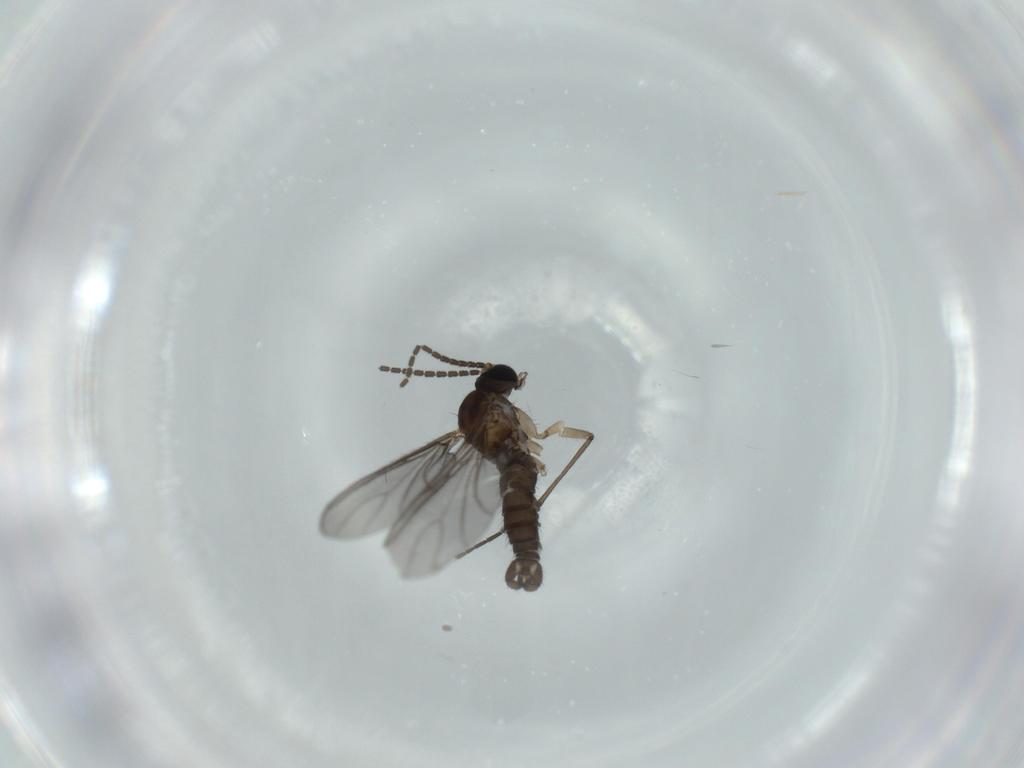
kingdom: Animalia
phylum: Arthropoda
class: Insecta
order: Diptera
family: Sciaridae
